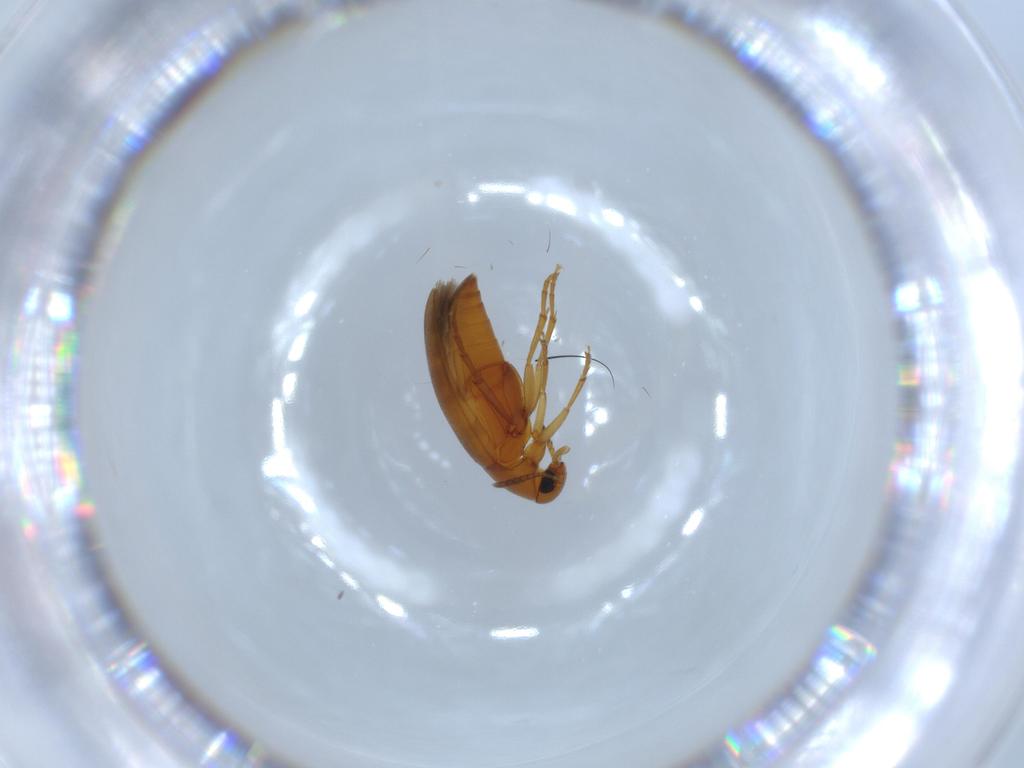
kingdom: Animalia
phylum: Arthropoda
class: Insecta
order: Coleoptera
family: Scraptiidae
